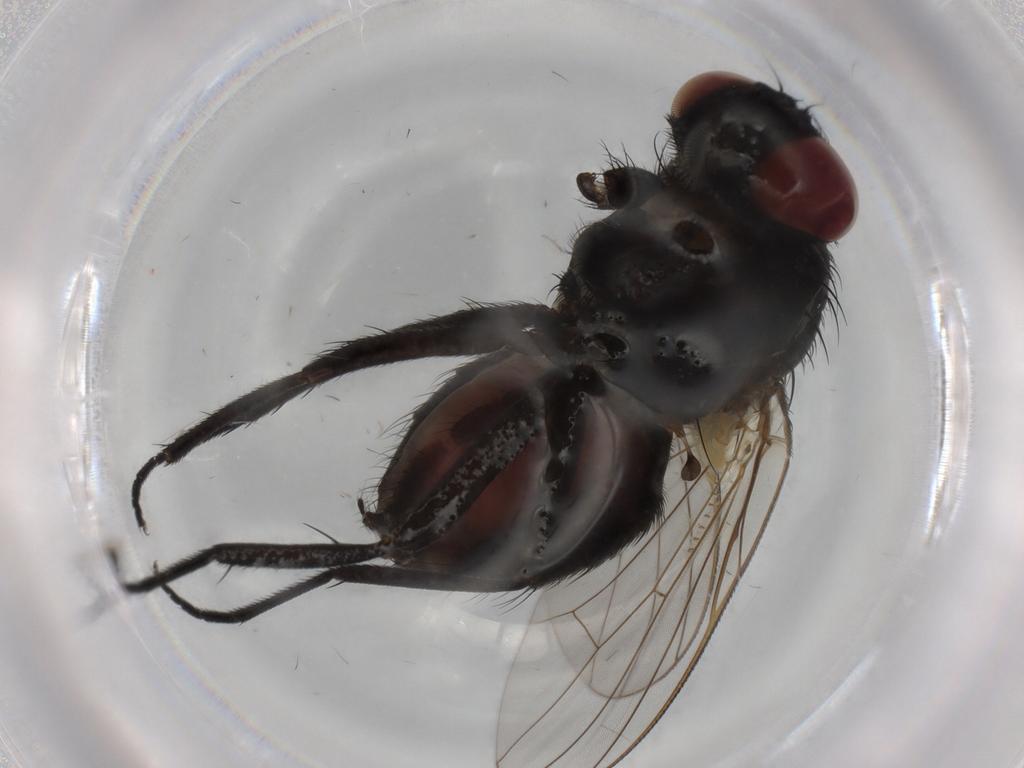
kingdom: Animalia
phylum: Arthropoda
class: Insecta
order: Diptera
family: Muscidae
